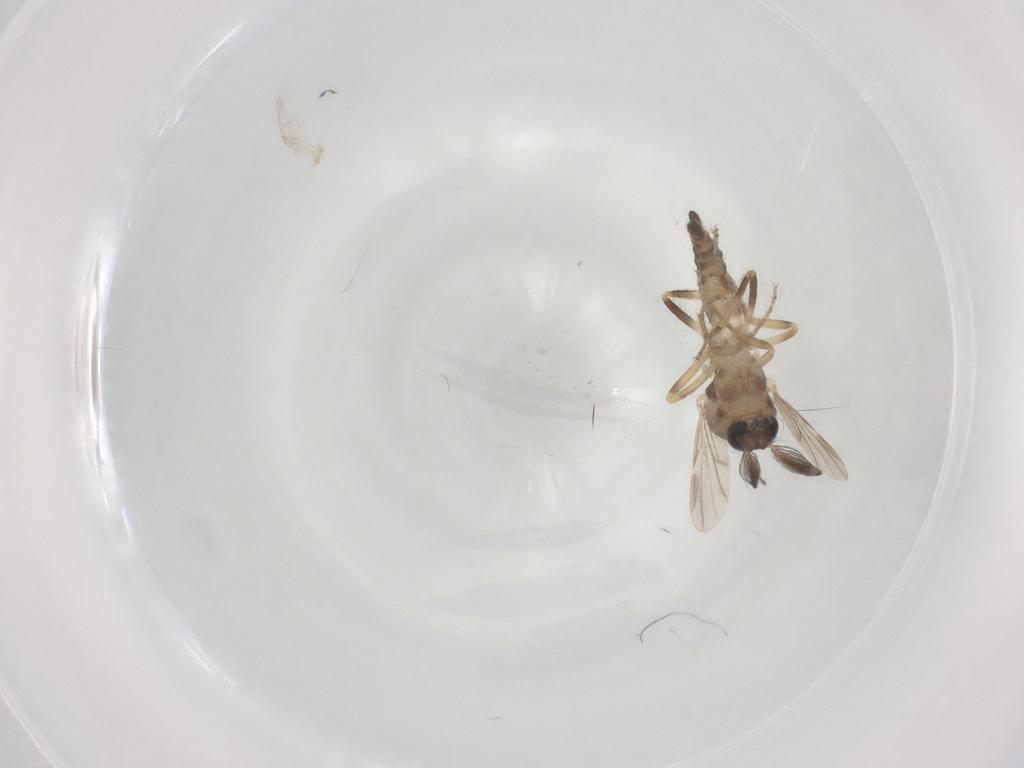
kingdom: Animalia
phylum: Arthropoda
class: Insecta
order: Diptera
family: Ceratopogonidae
